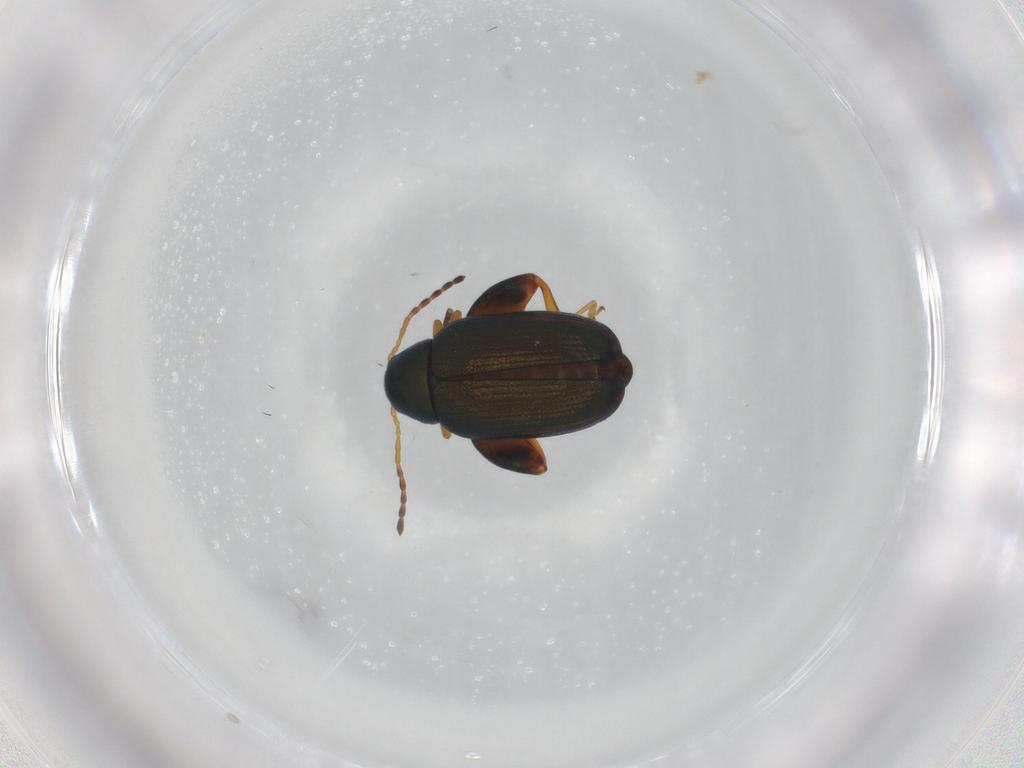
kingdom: Animalia
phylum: Arthropoda
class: Insecta
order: Coleoptera
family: Chrysomelidae
